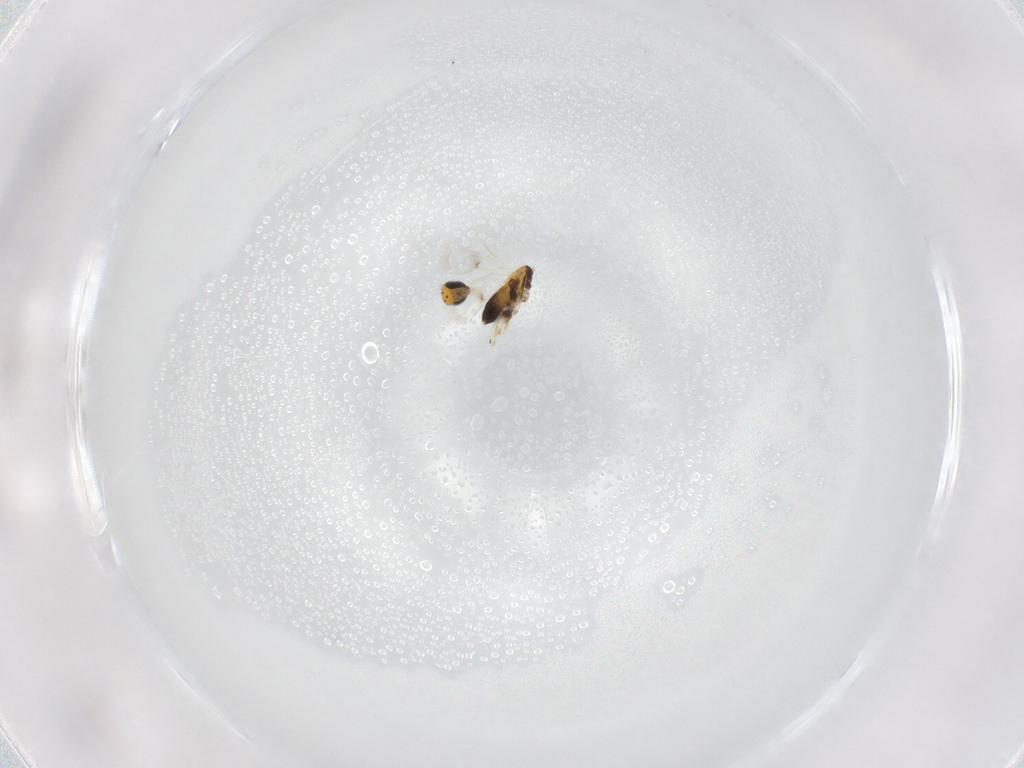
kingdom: Animalia
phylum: Arthropoda
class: Insecta
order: Hymenoptera
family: Trichogrammatidae
